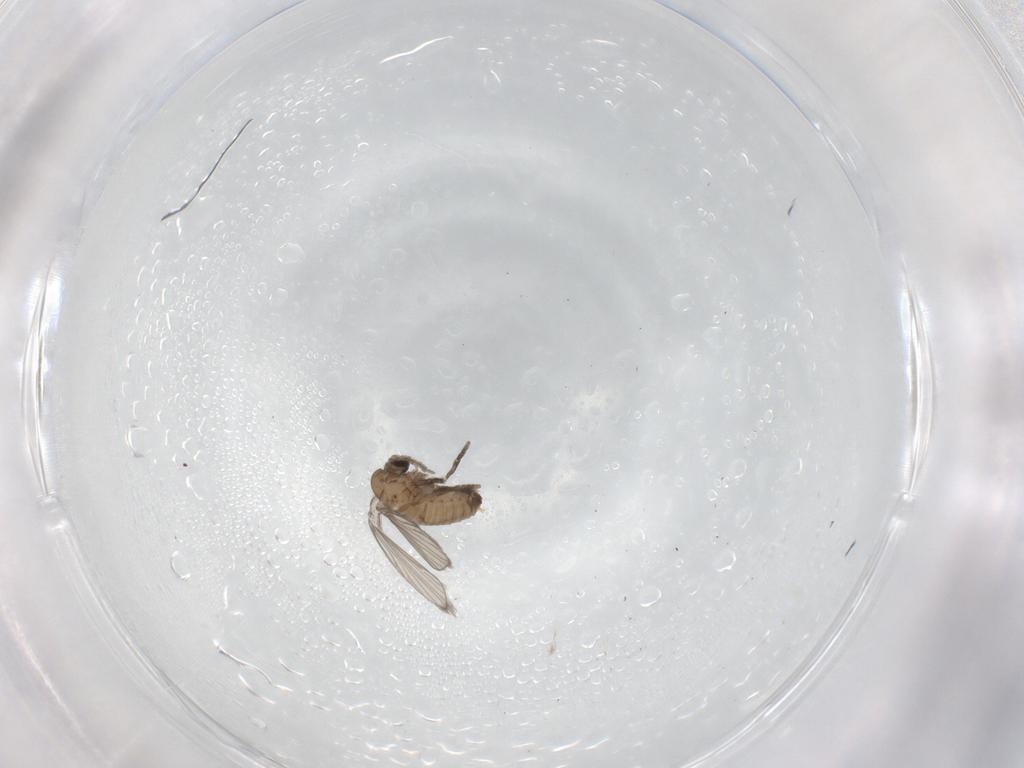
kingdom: Animalia
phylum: Arthropoda
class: Insecta
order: Diptera
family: Psychodidae
